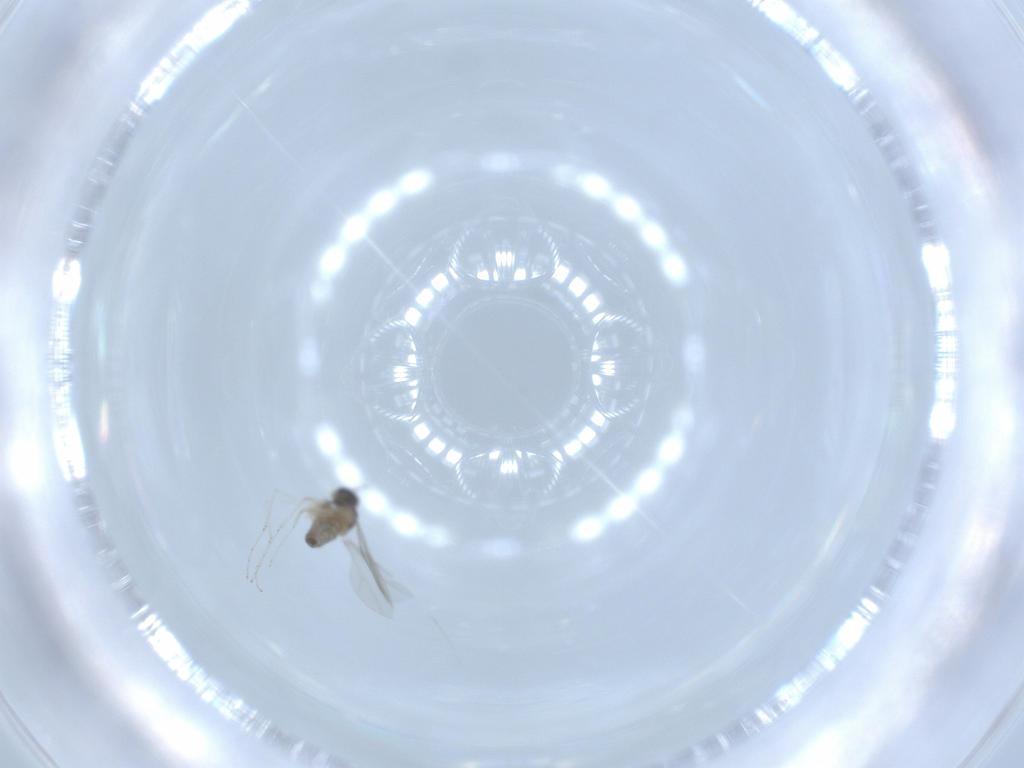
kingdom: Animalia
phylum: Arthropoda
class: Insecta
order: Diptera
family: Cecidomyiidae
